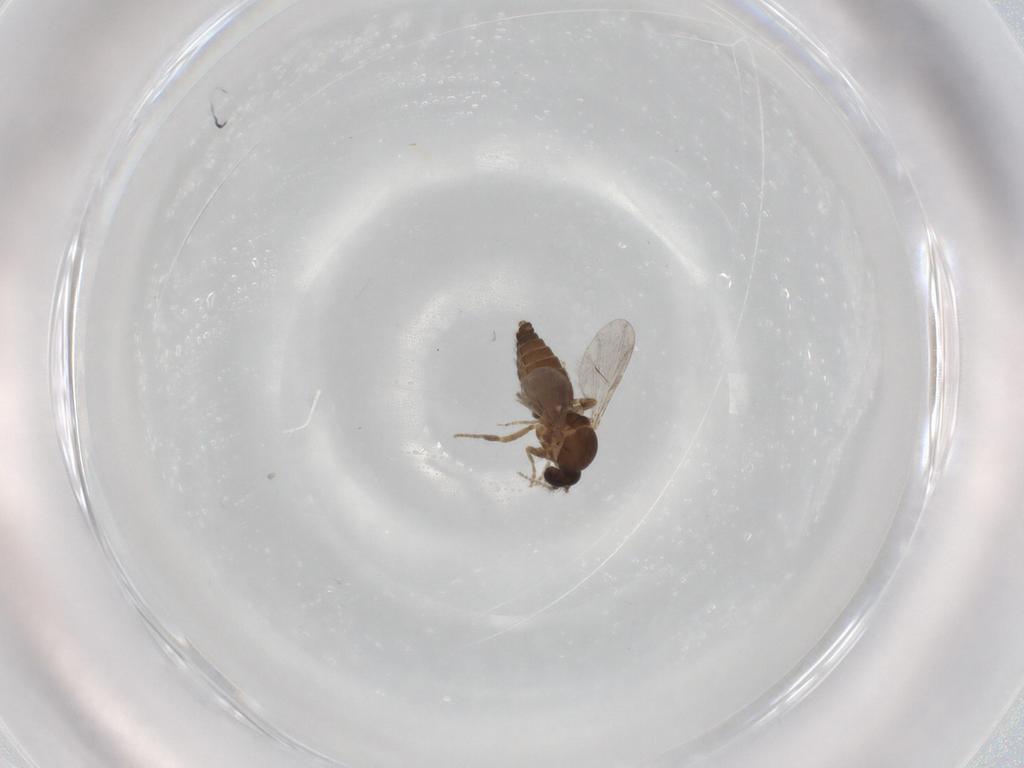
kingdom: Animalia
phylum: Arthropoda
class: Insecta
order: Diptera
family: Ceratopogonidae
